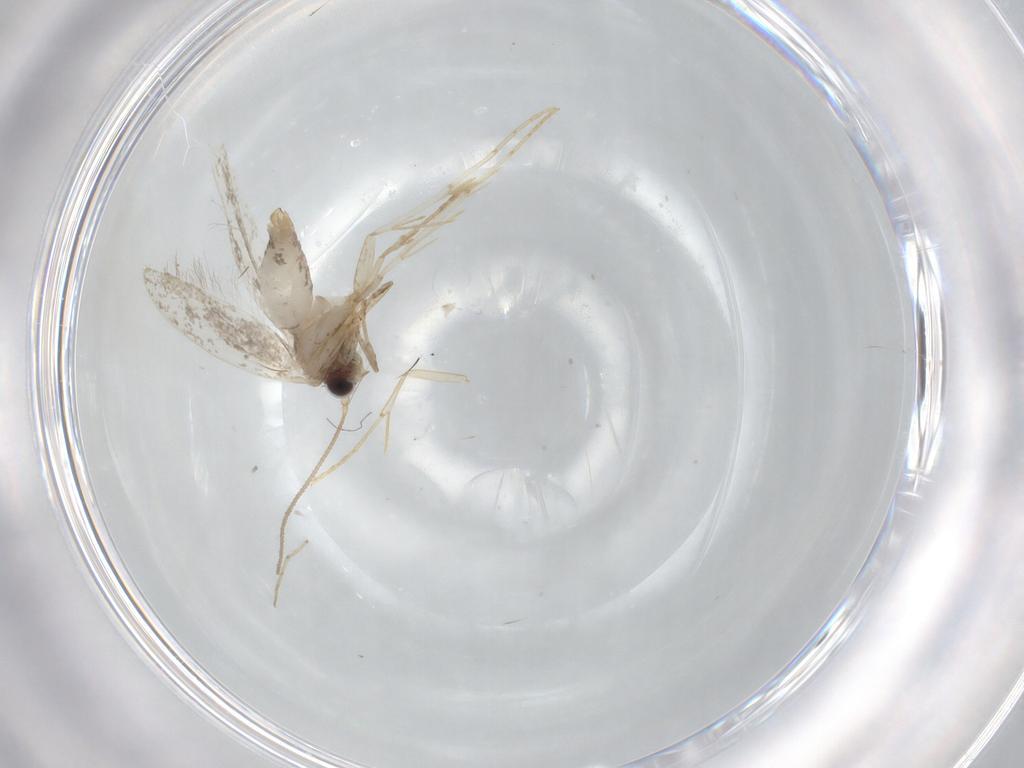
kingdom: Animalia
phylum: Arthropoda
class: Insecta
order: Lepidoptera
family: Tineidae
